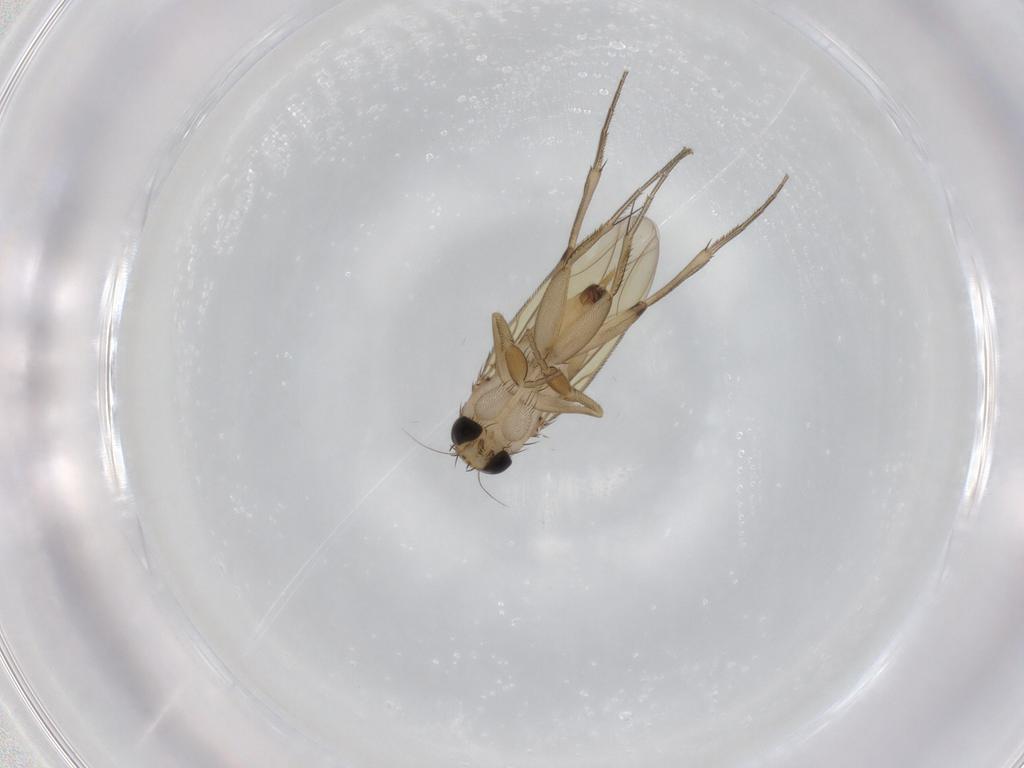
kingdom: Animalia
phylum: Arthropoda
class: Insecta
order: Diptera
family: Phoridae
